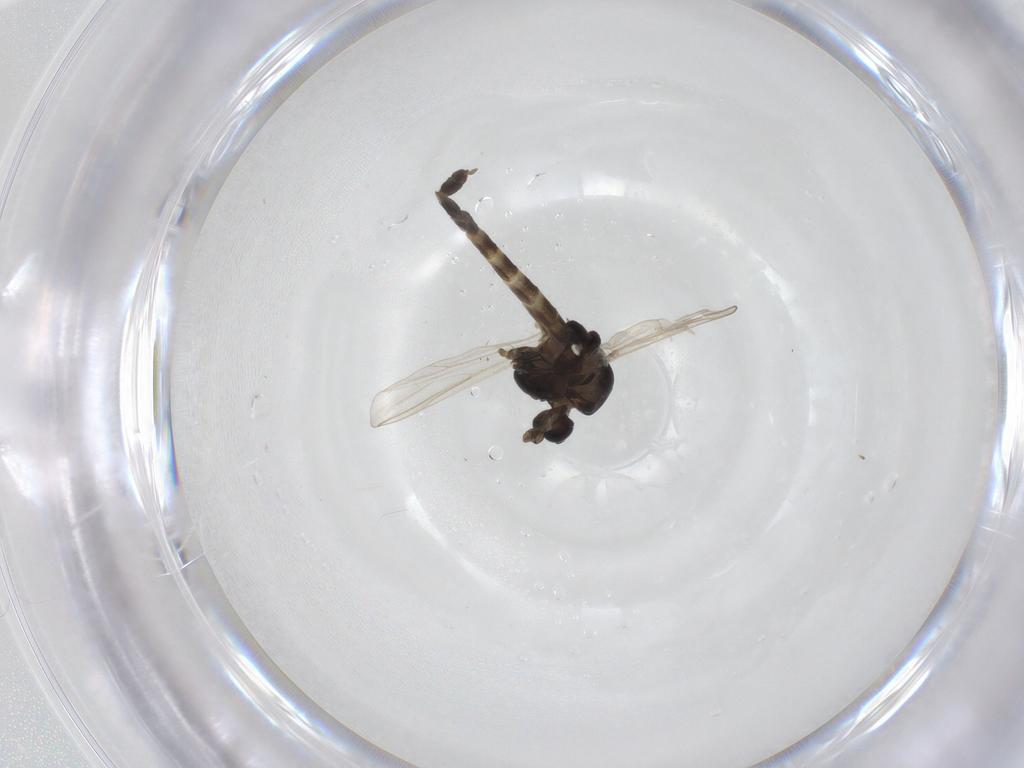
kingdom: Animalia
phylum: Arthropoda
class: Insecta
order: Diptera
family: Chironomidae
